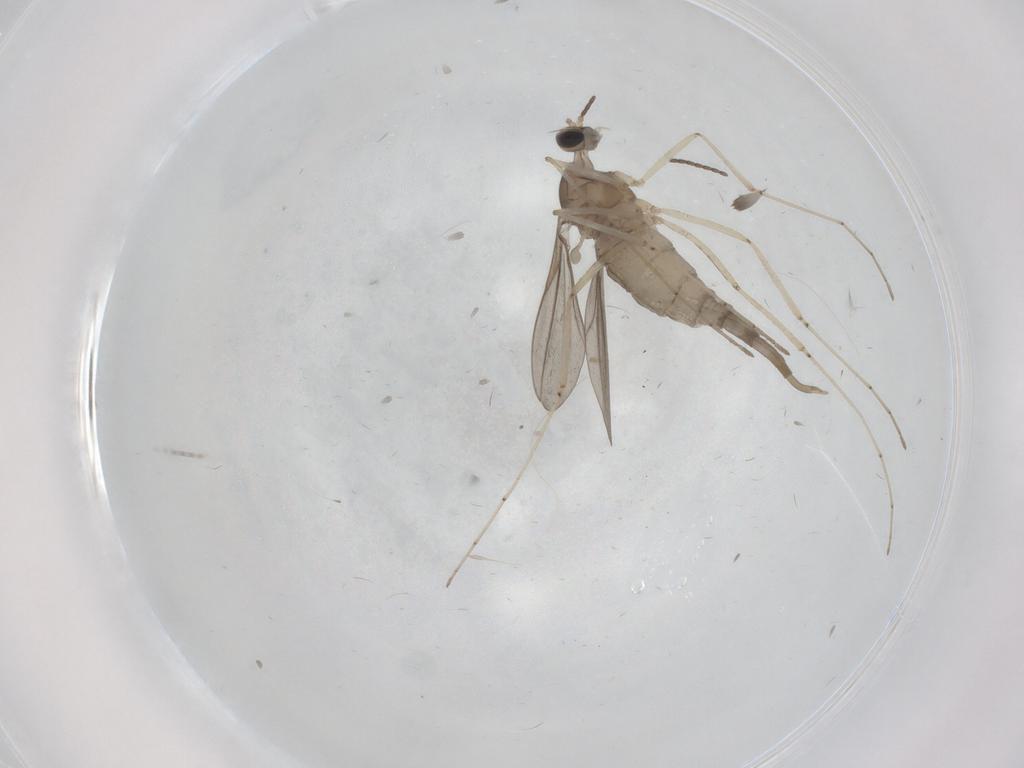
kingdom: Animalia
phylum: Arthropoda
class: Insecta
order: Diptera
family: Cecidomyiidae
